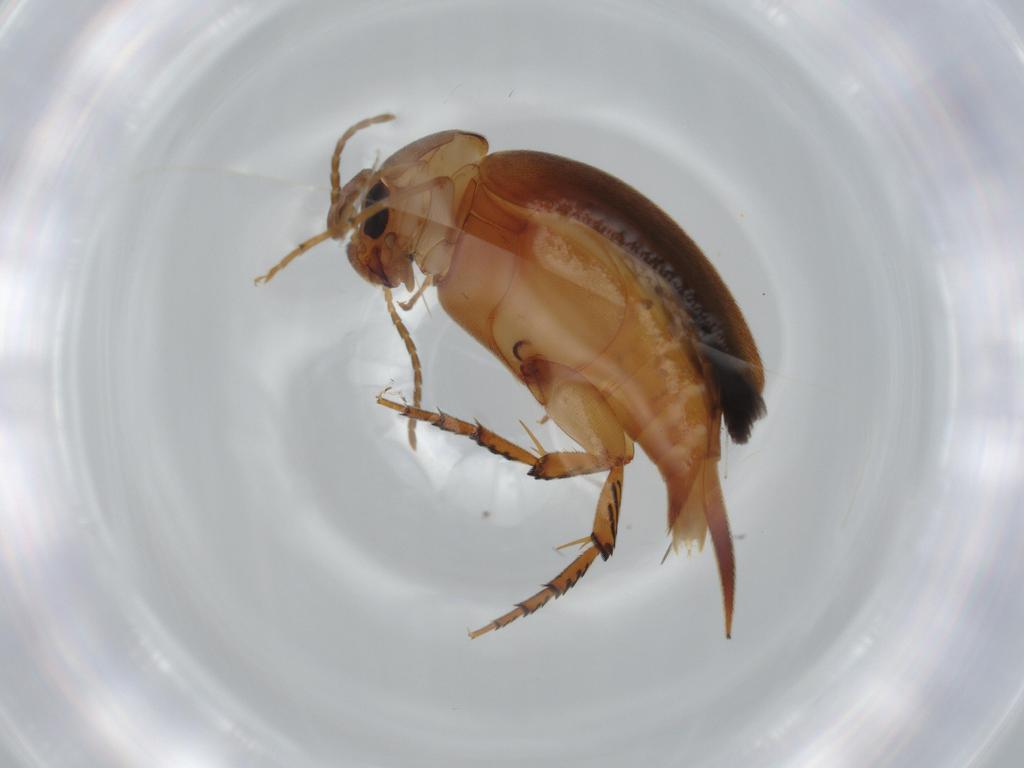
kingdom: Animalia
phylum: Arthropoda
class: Insecta
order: Coleoptera
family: Mordellidae
